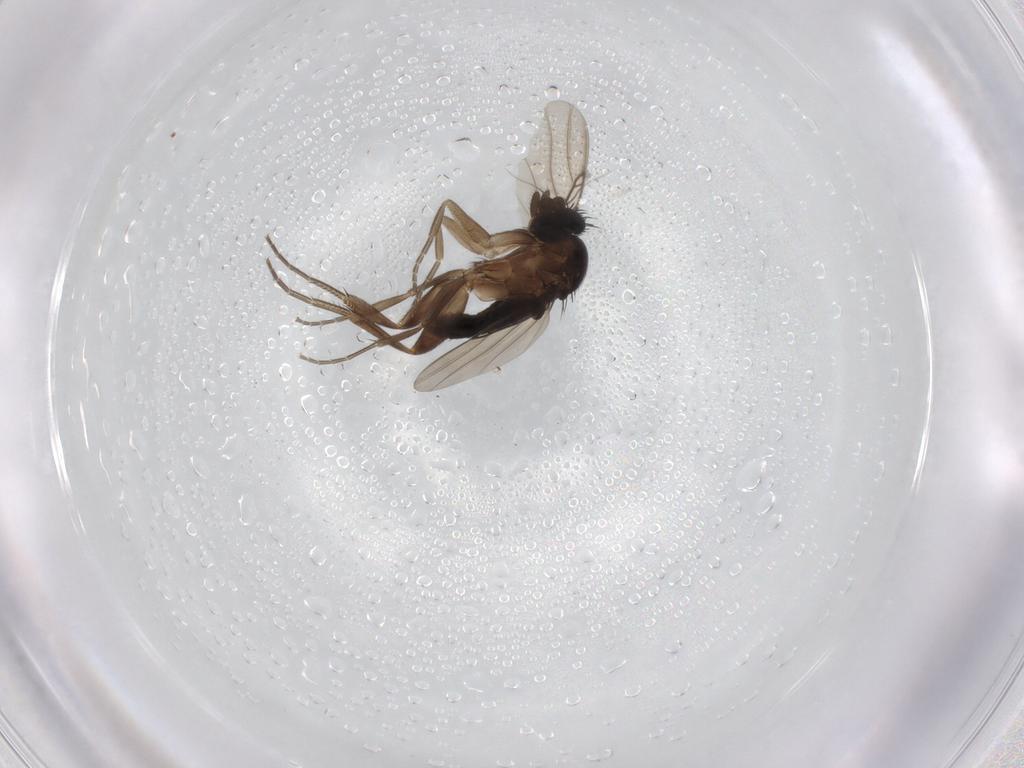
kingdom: Animalia
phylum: Arthropoda
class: Insecta
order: Diptera
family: Phoridae
